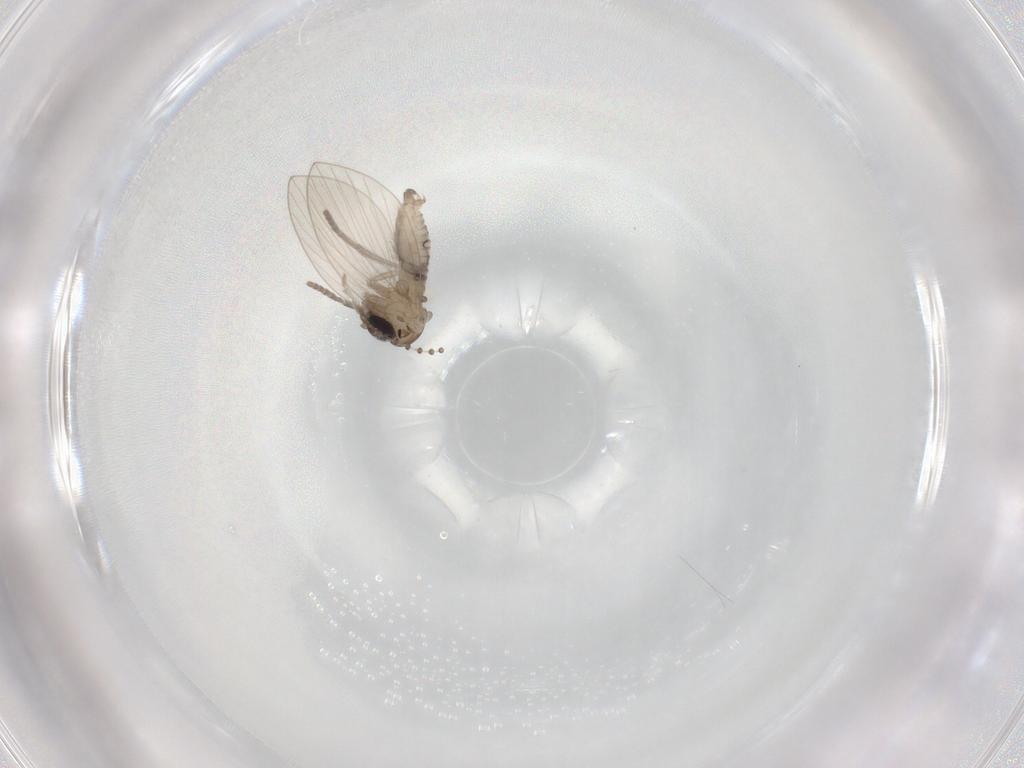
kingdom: Animalia
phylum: Arthropoda
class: Insecta
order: Diptera
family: Psychodidae
